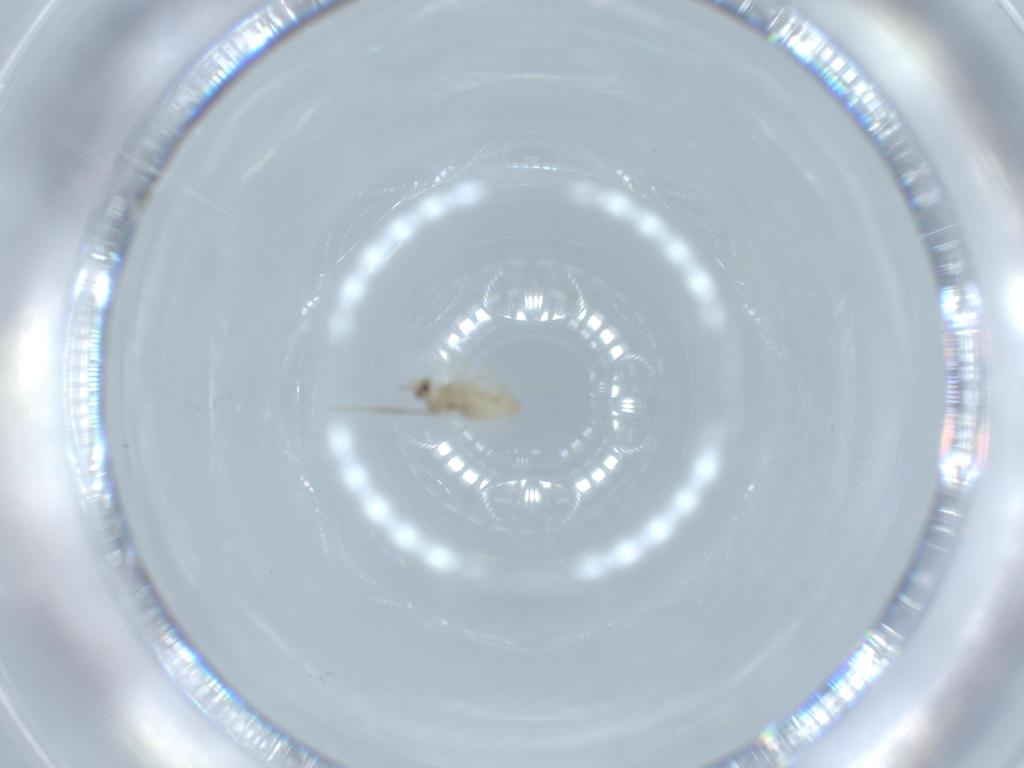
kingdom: Animalia
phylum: Arthropoda
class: Insecta
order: Diptera
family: Cecidomyiidae
